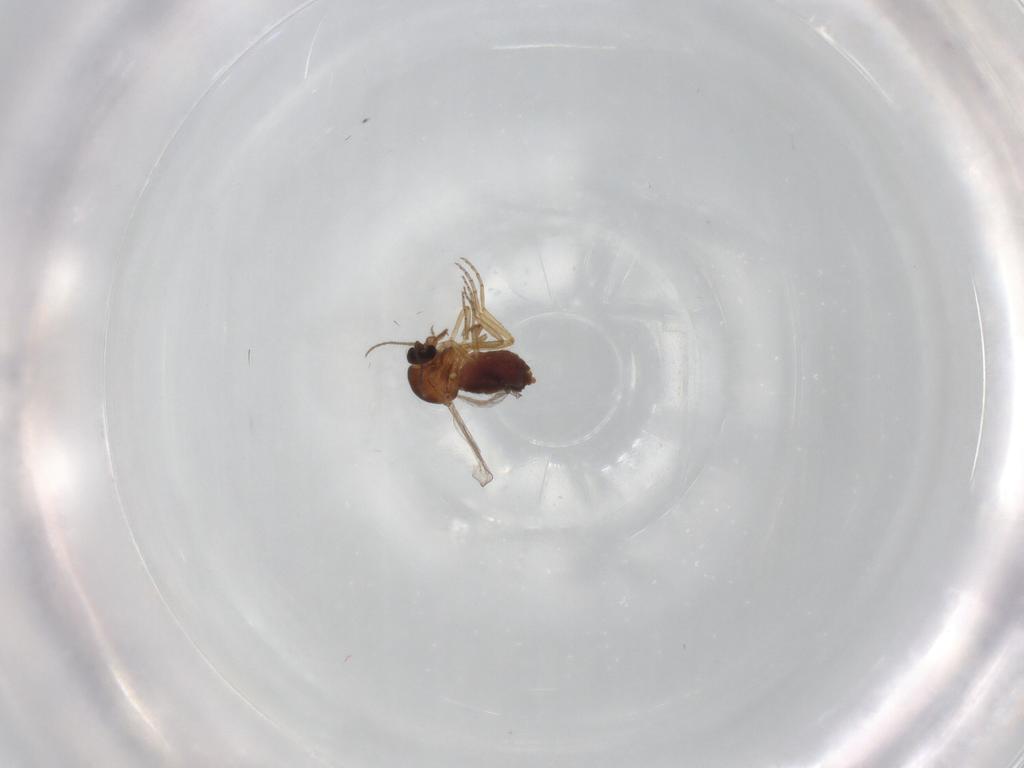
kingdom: Animalia
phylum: Arthropoda
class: Insecta
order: Diptera
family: Ceratopogonidae
